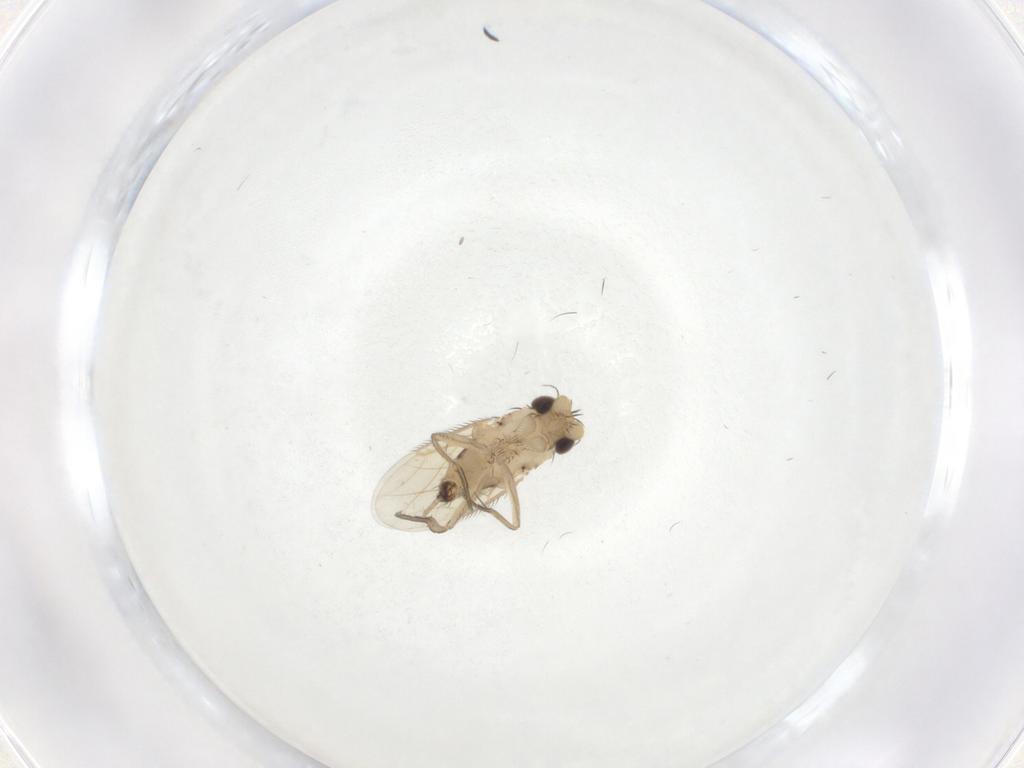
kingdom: Animalia
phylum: Arthropoda
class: Insecta
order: Diptera
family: Phoridae
